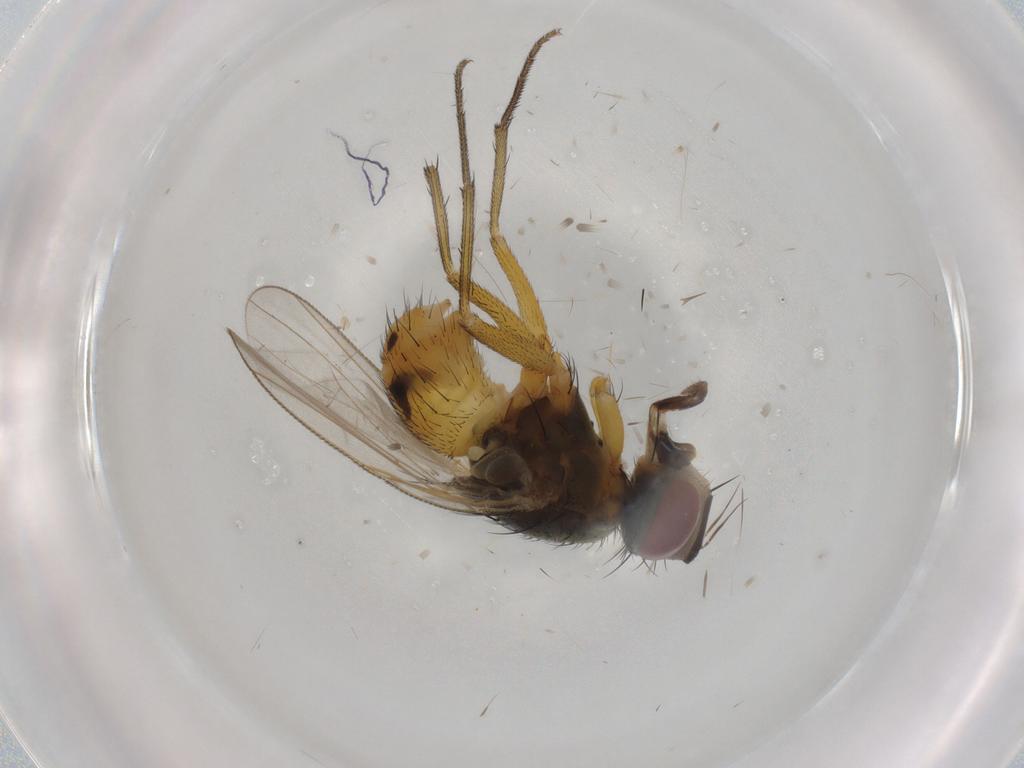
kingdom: Animalia
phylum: Arthropoda
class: Insecta
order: Diptera
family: Muscidae
